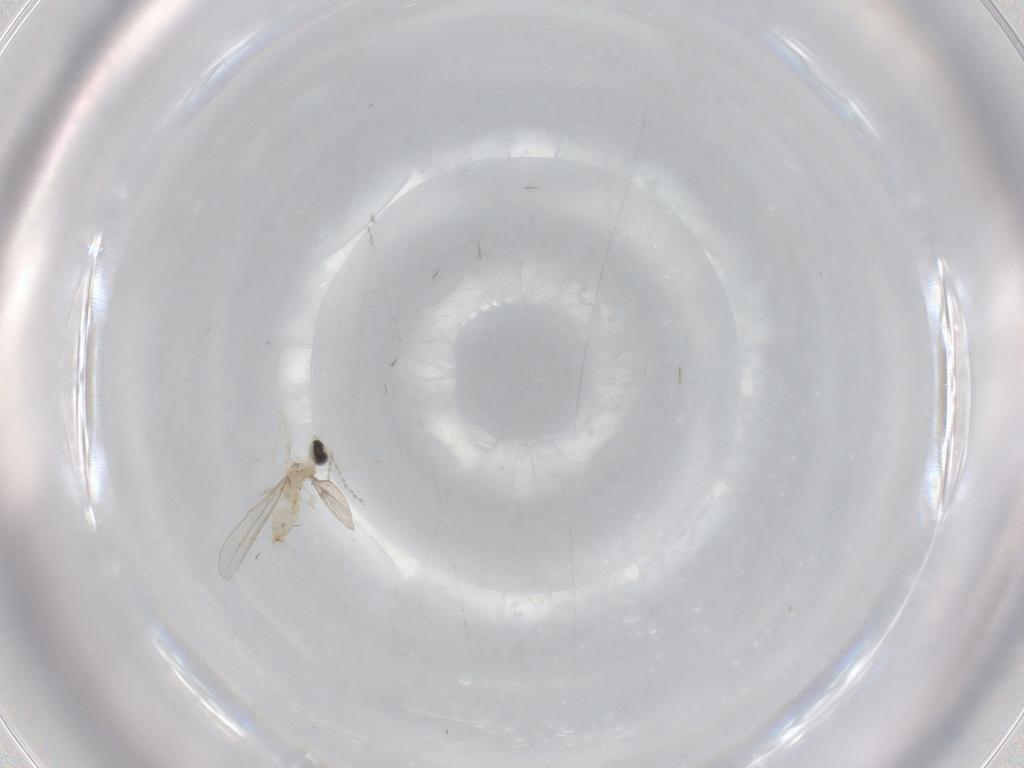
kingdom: Animalia
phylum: Arthropoda
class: Insecta
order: Diptera
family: Cecidomyiidae
